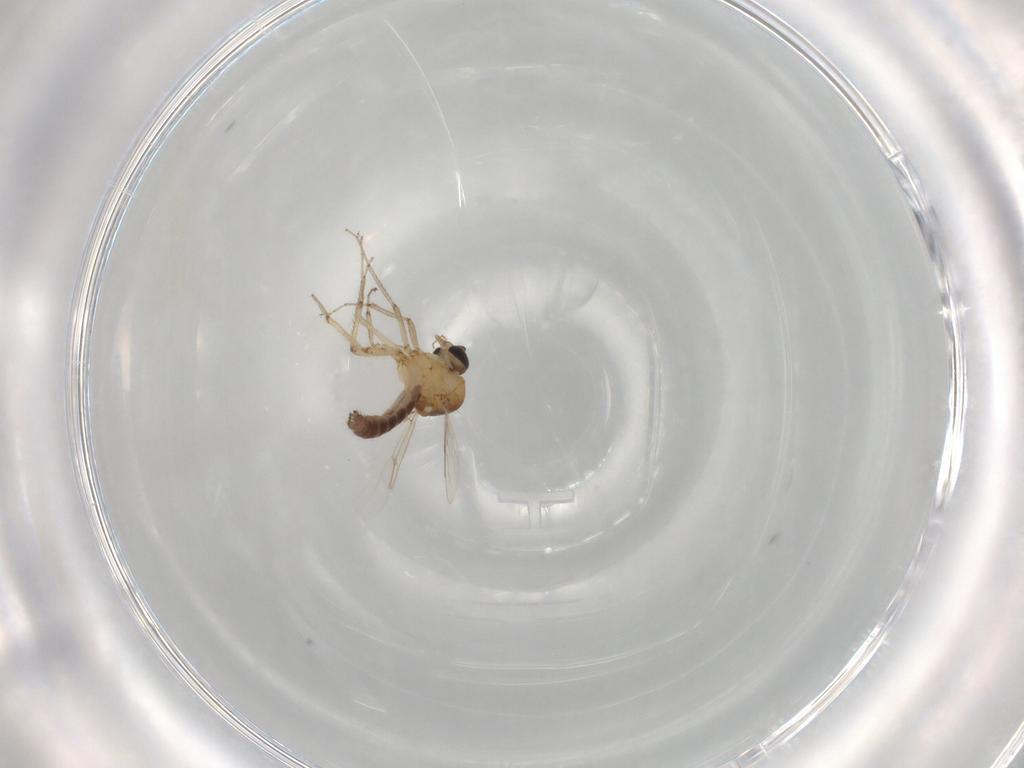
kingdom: Animalia
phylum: Arthropoda
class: Insecta
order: Diptera
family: Ceratopogonidae
